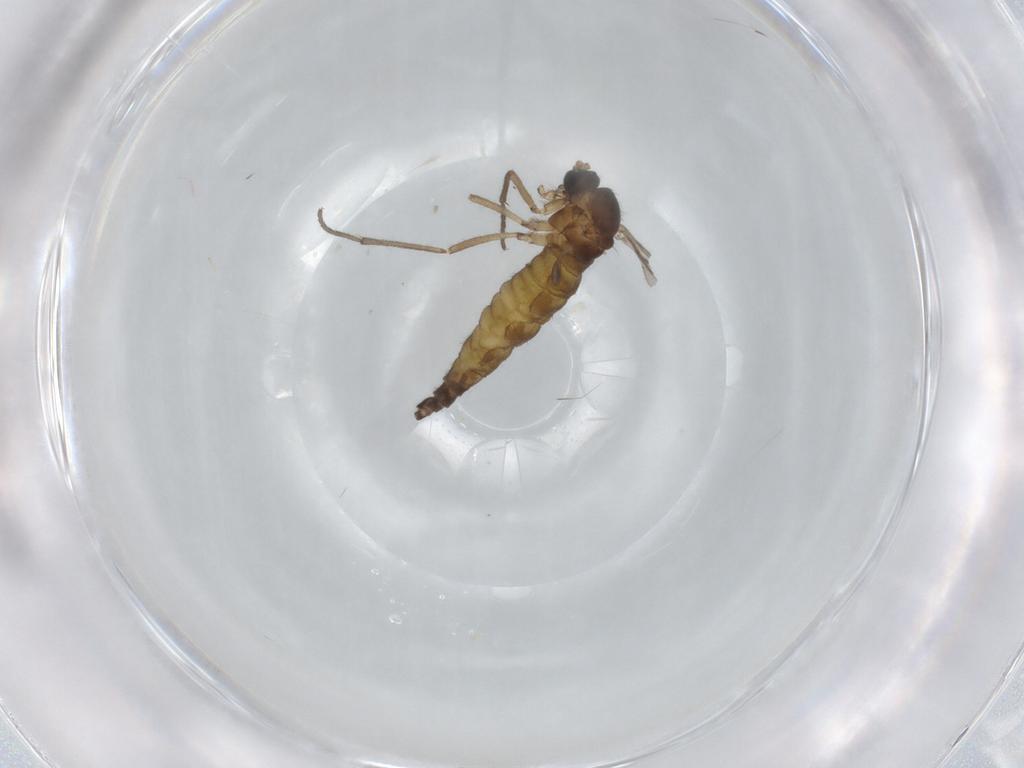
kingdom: Animalia
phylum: Arthropoda
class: Insecta
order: Diptera
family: Sciaridae
